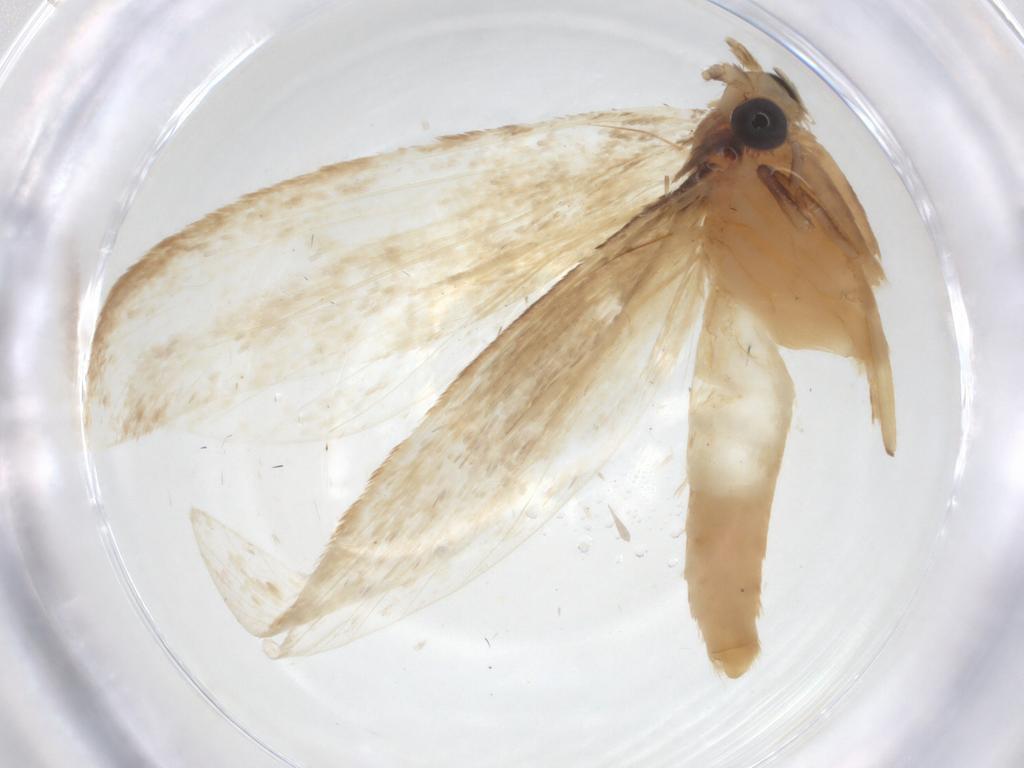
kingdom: Animalia
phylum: Arthropoda
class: Insecta
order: Lepidoptera
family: Tineidae
